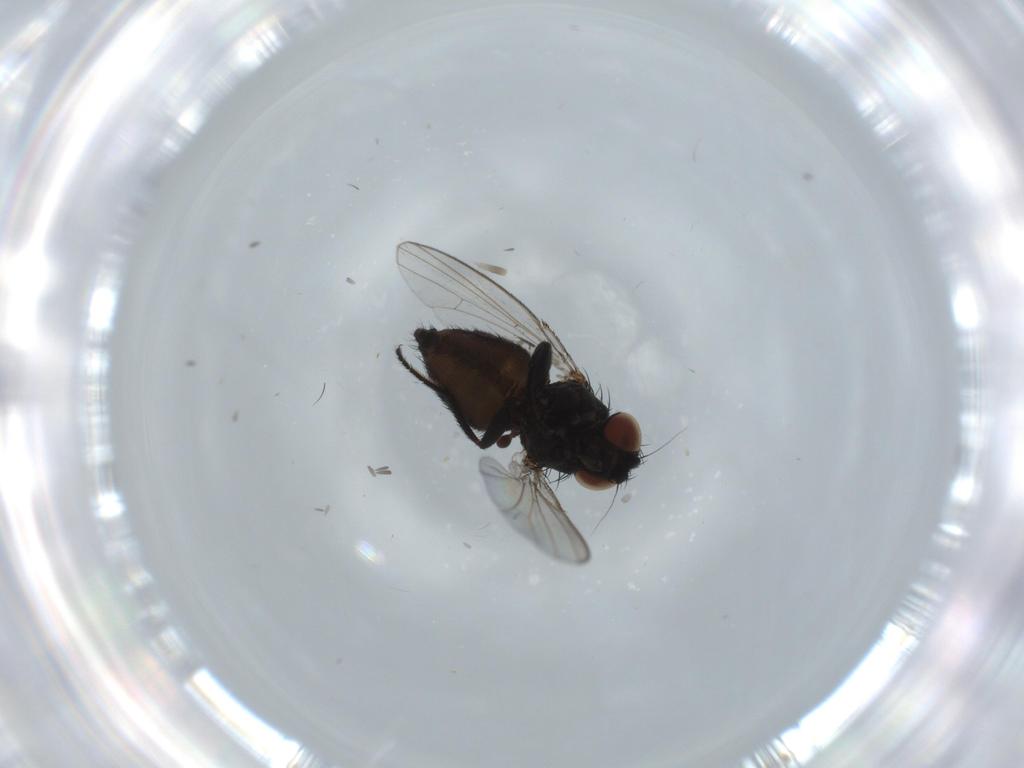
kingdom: Animalia
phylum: Arthropoda
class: Insecta
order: Diptera
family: Milichiidae
